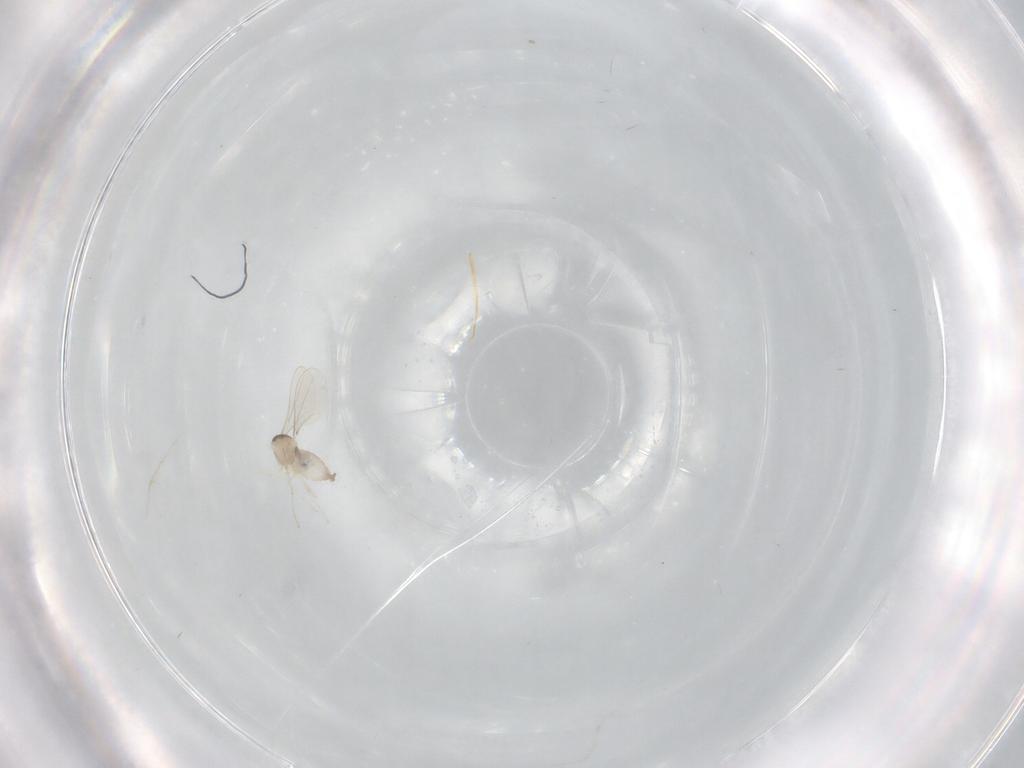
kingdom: Animalia
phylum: Arthropoda
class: Insecta
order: Diptera
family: Cecidomyiidae
